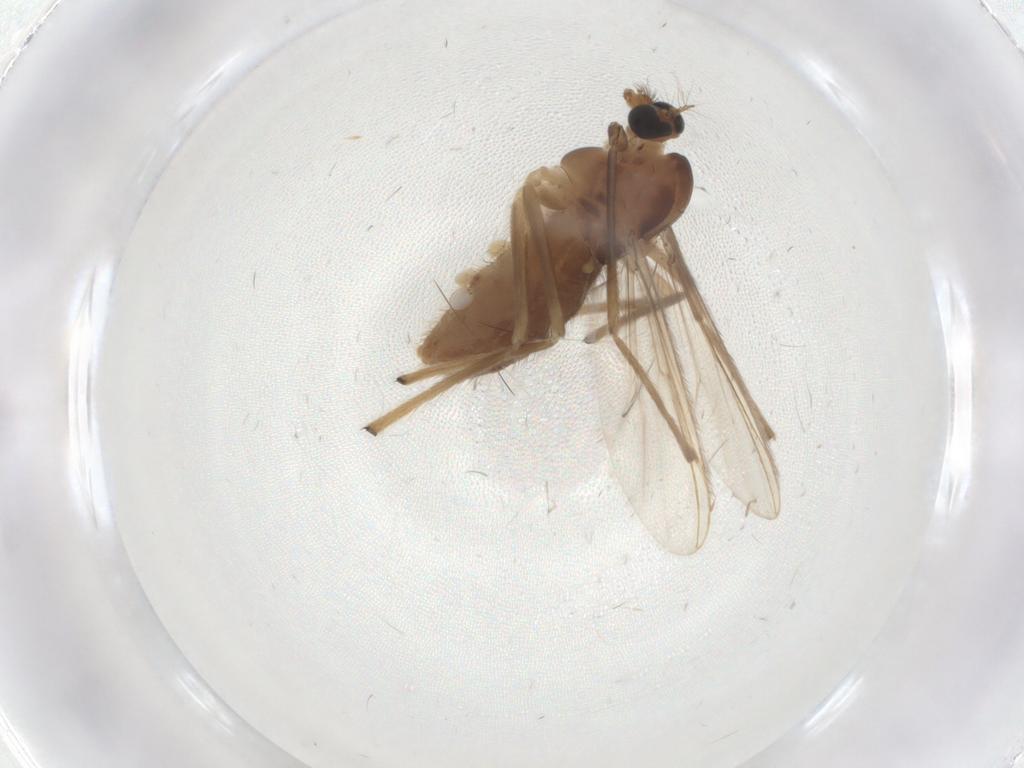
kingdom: Animalia
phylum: Arthropoda
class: Insecta
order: Diptera
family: Chironomidae
